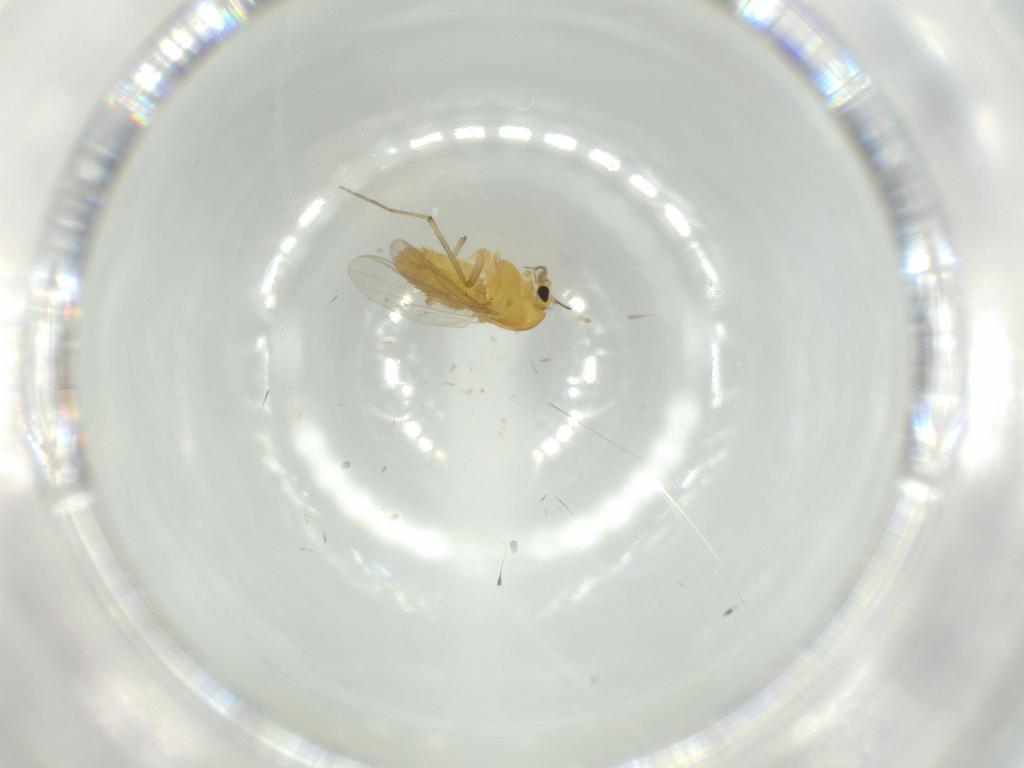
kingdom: Animalia
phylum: Arthropoda
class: Insecta
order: Diptera
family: Chironomidae
